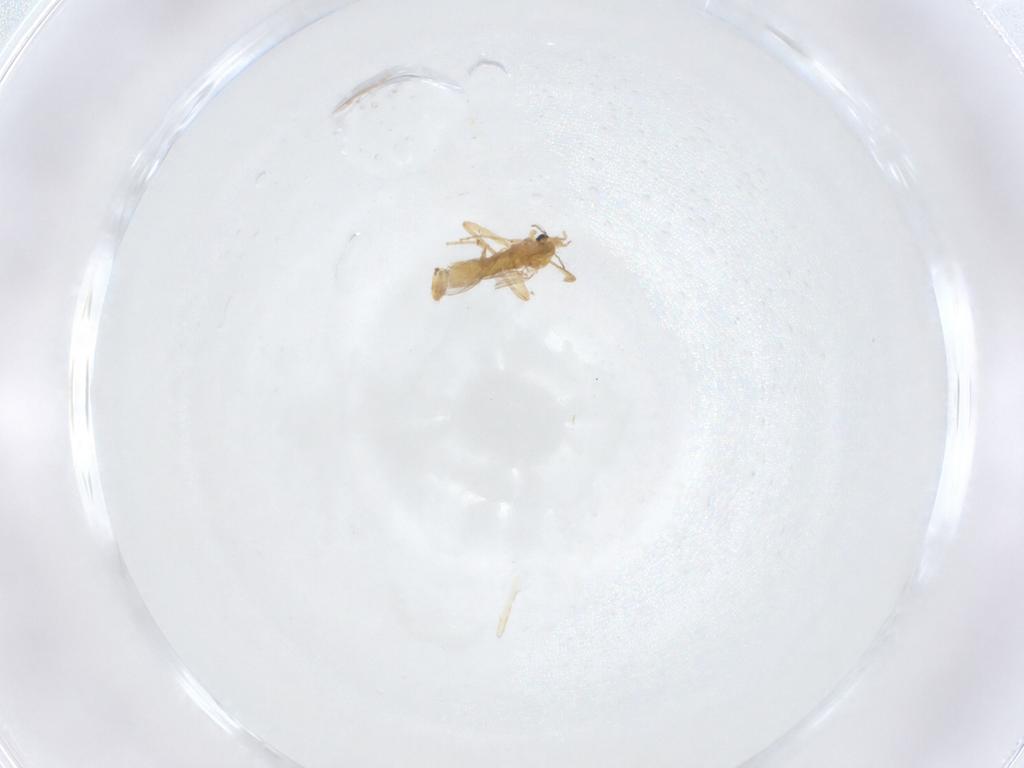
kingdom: Animalia
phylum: Arthropoda
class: Insecta
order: Diptera
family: Chironomidae
